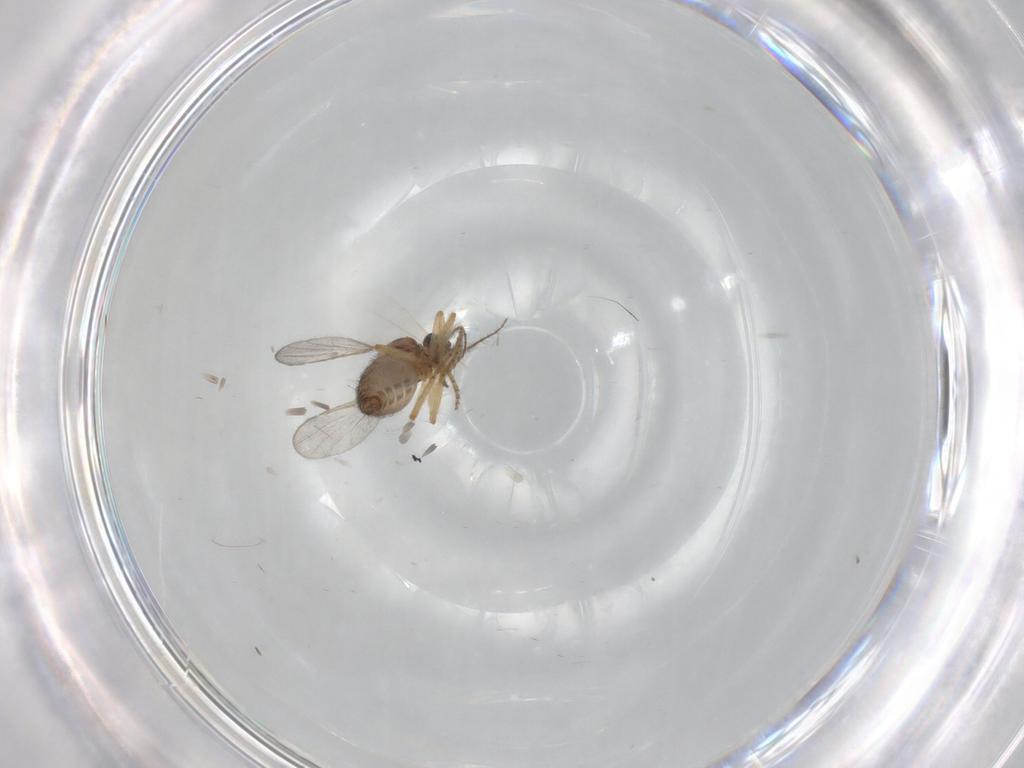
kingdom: Animalia
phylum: Arthropoda
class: Insecta
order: Diptera
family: Ceratopogonidae
